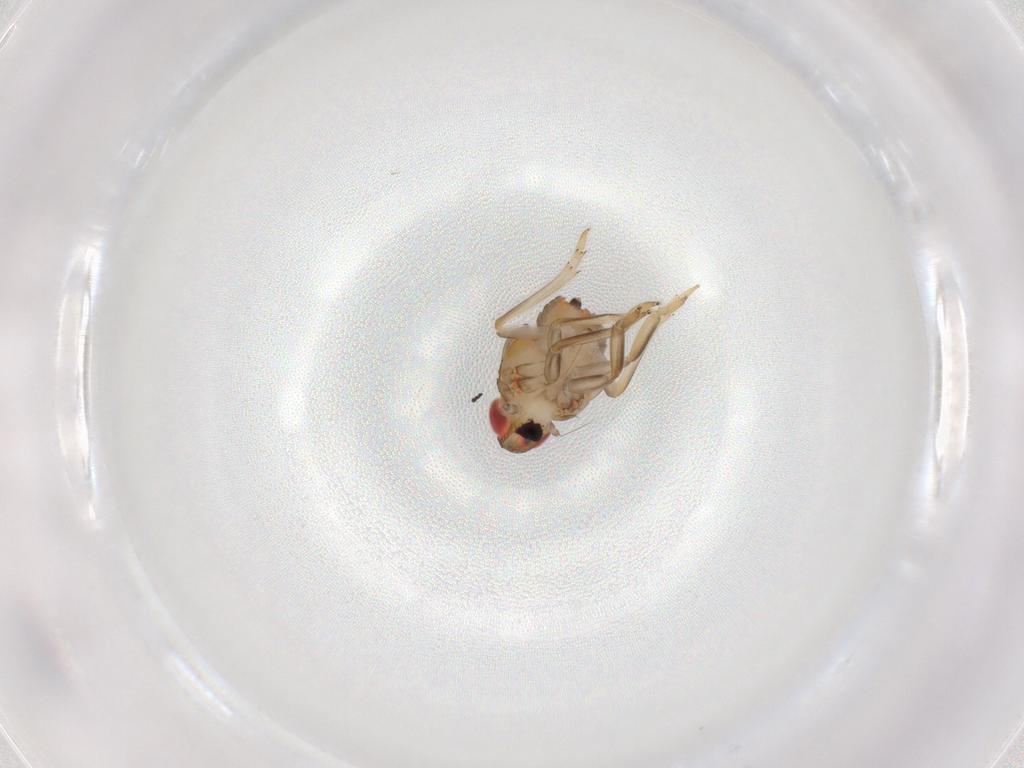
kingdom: Animalia
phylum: Arthropoda
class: Insecta
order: Hemiptera
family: Issidae
